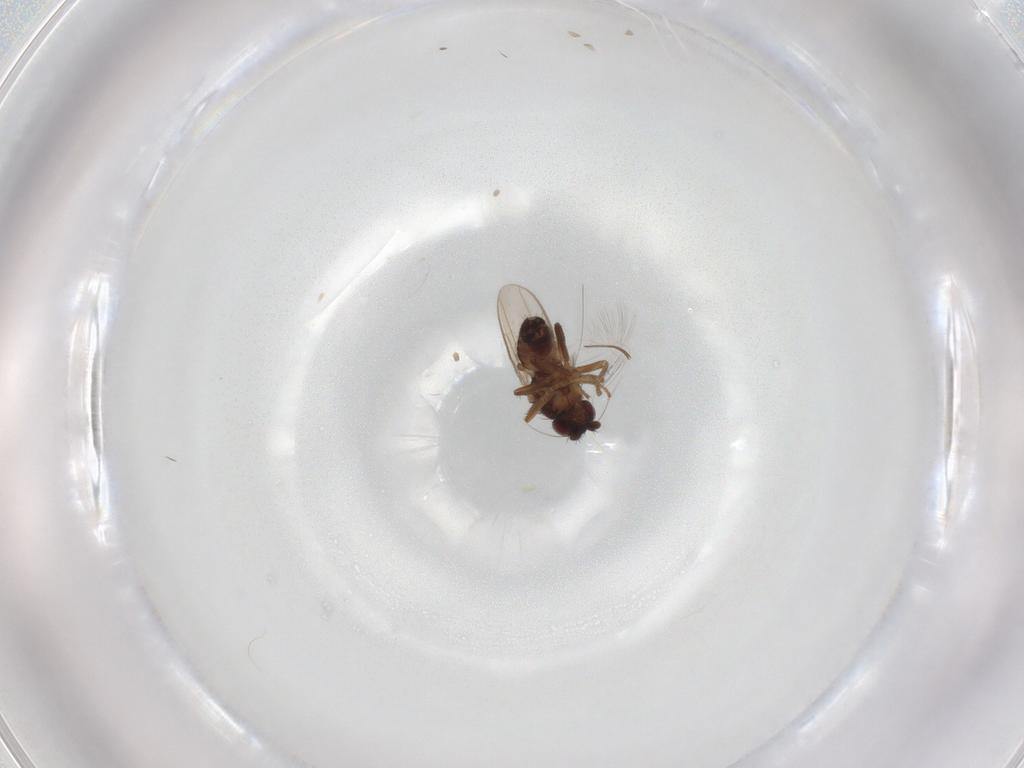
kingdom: Animalia
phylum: Arthropoda
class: Insecta
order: Diptera
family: Sphaeroceridae
